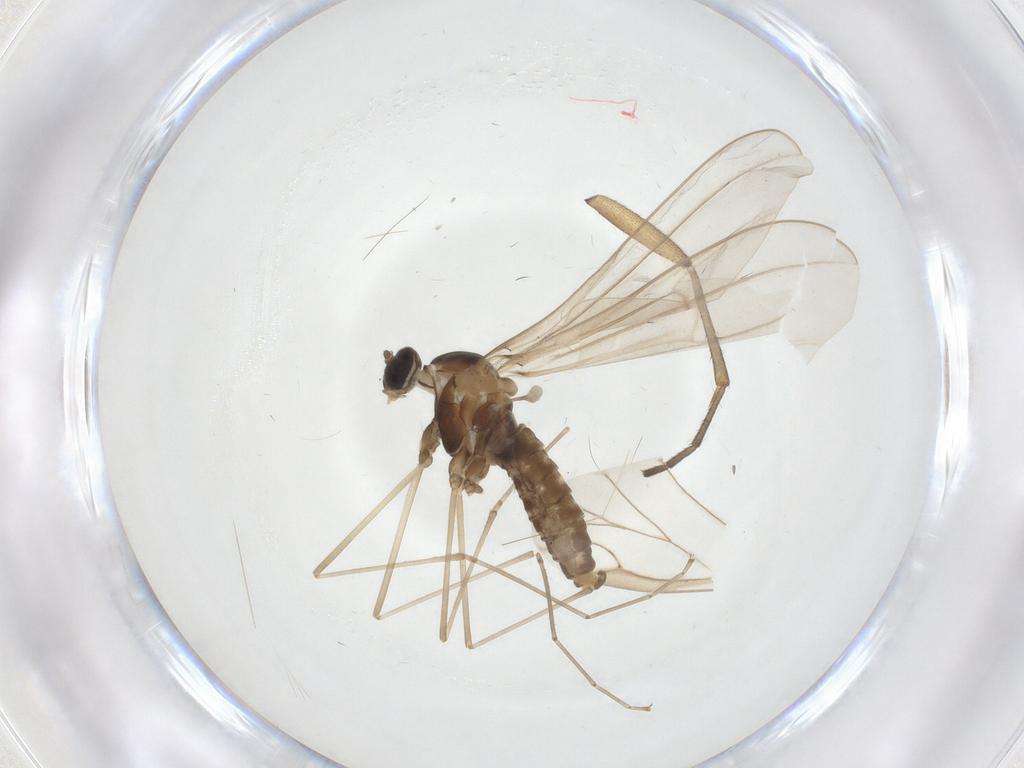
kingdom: Animalia
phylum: Arthropoda
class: Insecta
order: Diptera
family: Cecidomyiidae
